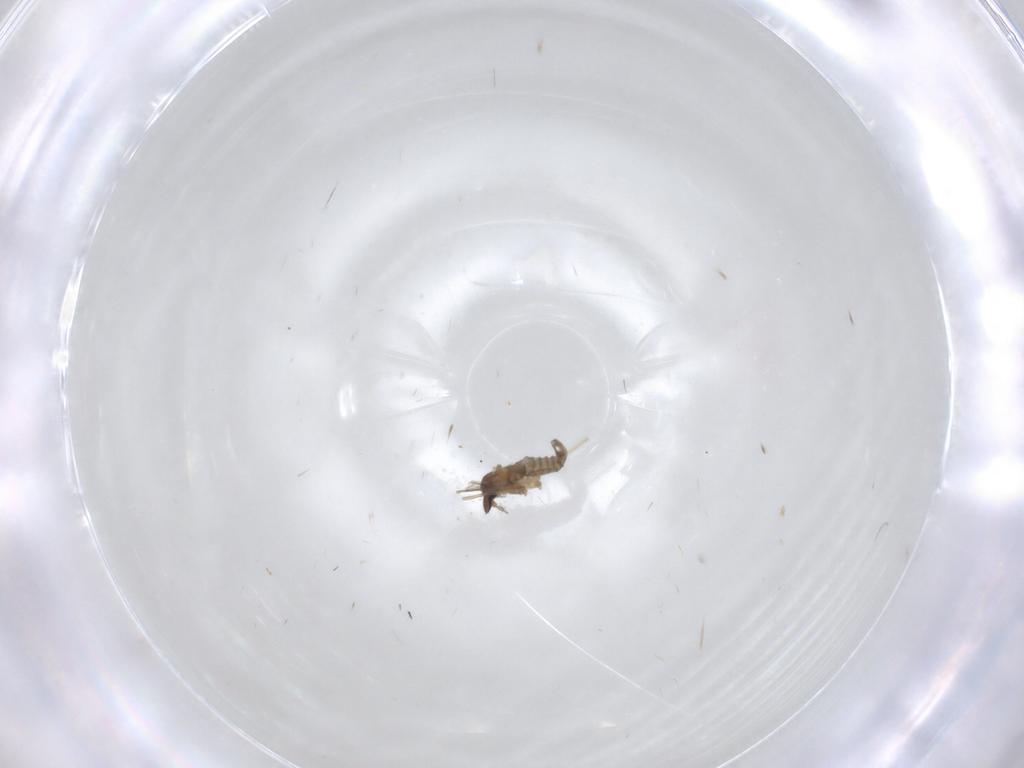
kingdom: Animalia
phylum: Arthropoda
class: Insecta
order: Diptera
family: Cecidomyiidae
